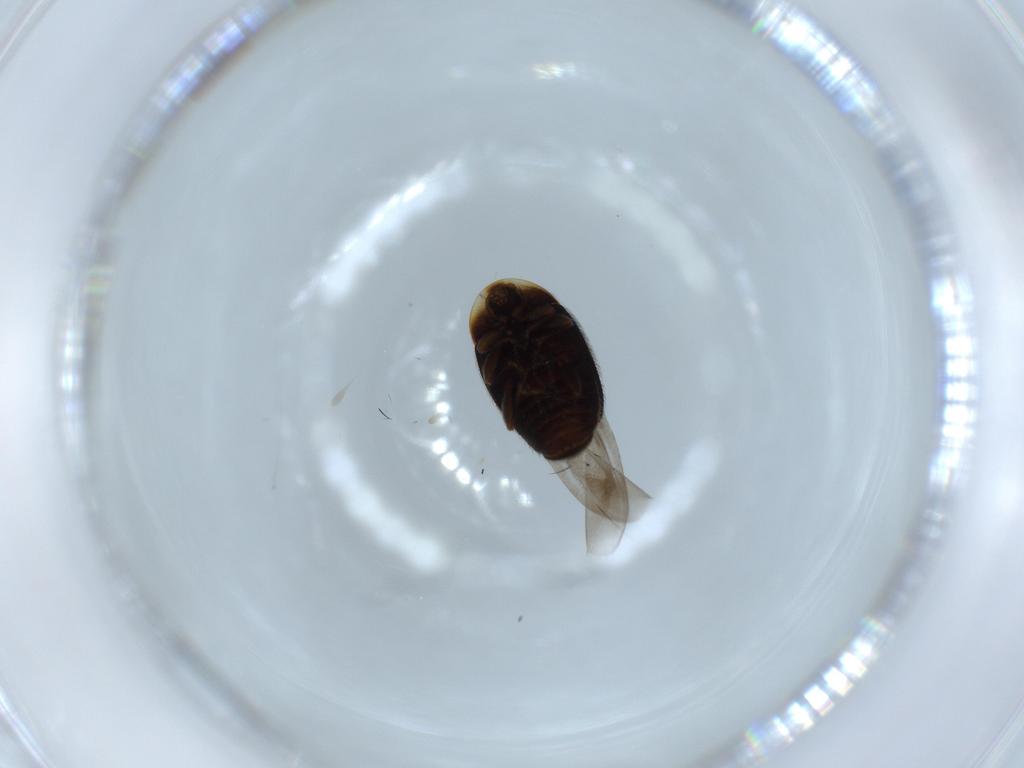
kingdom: Animalia
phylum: Arthropoda
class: Insecta
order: Coleoptera
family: Corylophidae
